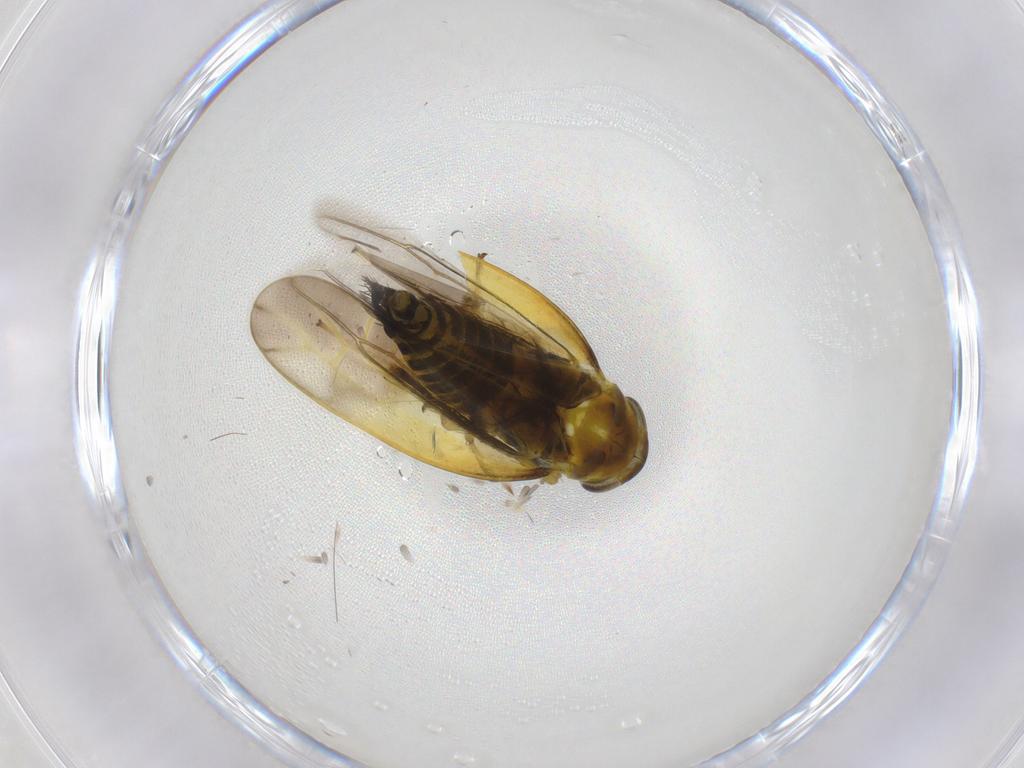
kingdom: Animalia
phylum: Arthropoda
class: Insecta
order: Hemiptera
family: Cicadellidae
